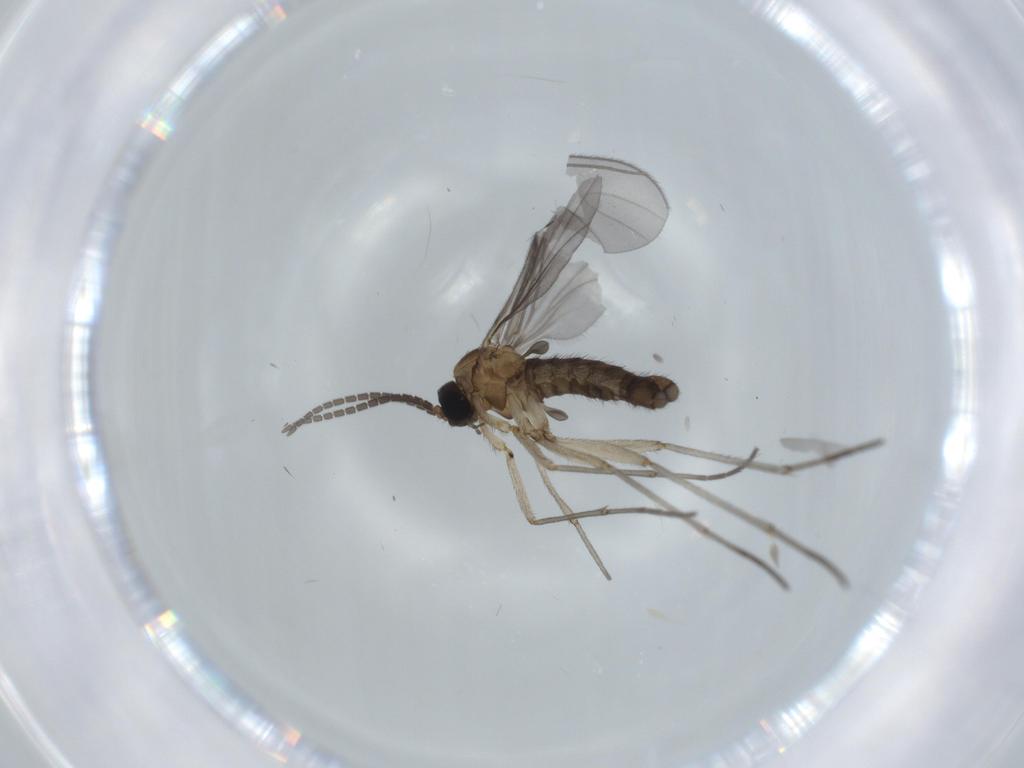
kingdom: Animalia
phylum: Arthropoda
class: Insecta
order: Diptera
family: Sciaridae
